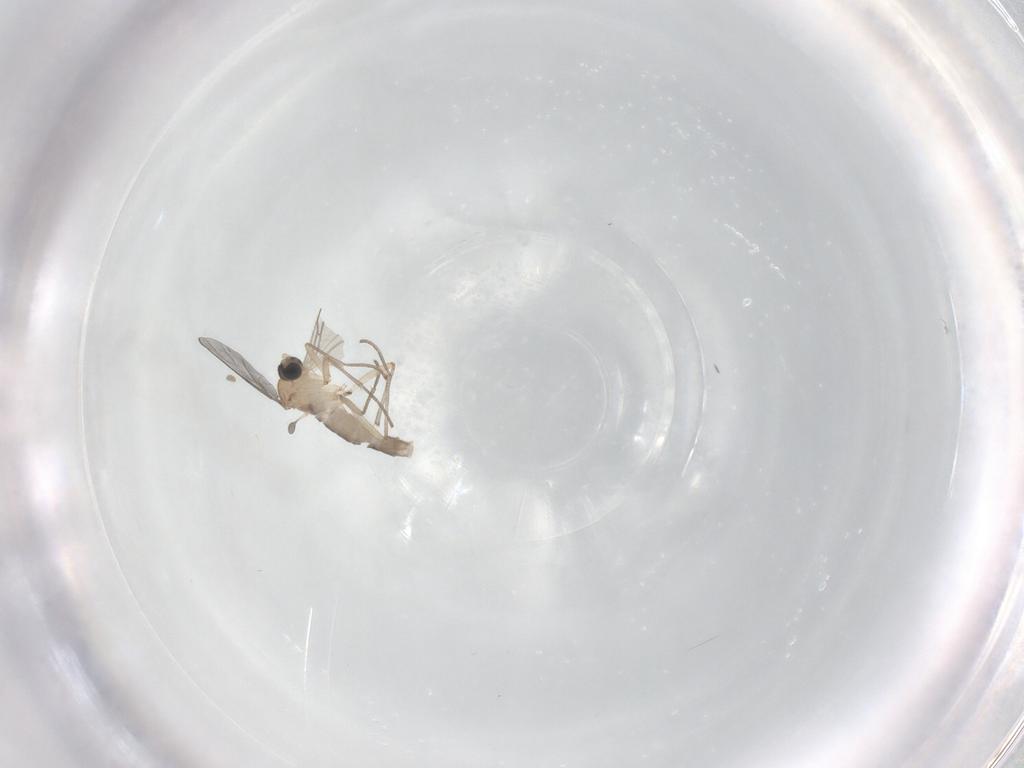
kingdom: Animalia
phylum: Arthropoda
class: Insecta
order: Diptera
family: Sciaridae
